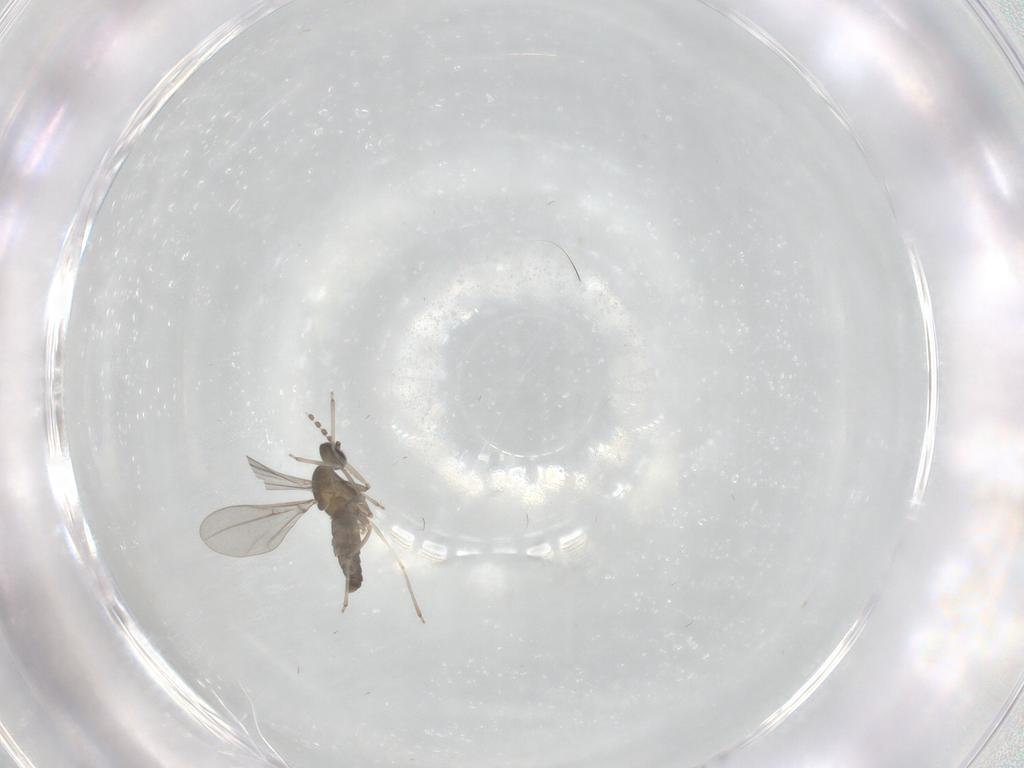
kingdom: Animalia
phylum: Arthropoda
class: Insecta
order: Diptera
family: Cecidomyiidae
